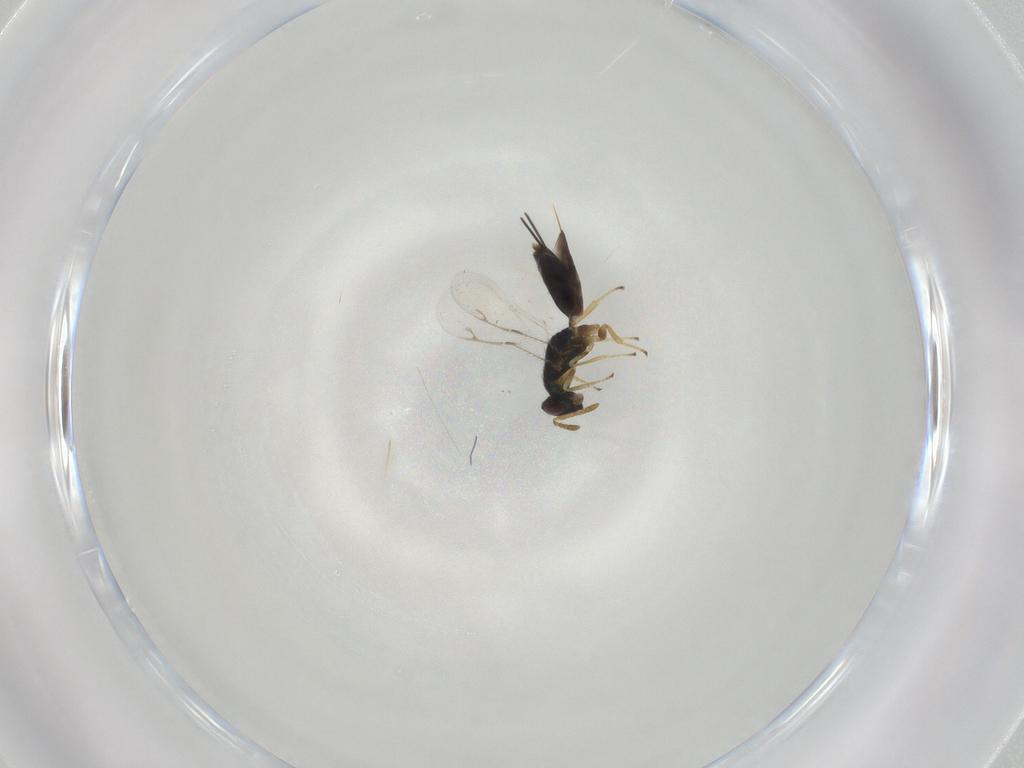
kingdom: Animalia
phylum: Arthropoda
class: Insecta
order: Hymenoptera
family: Pirenidae
